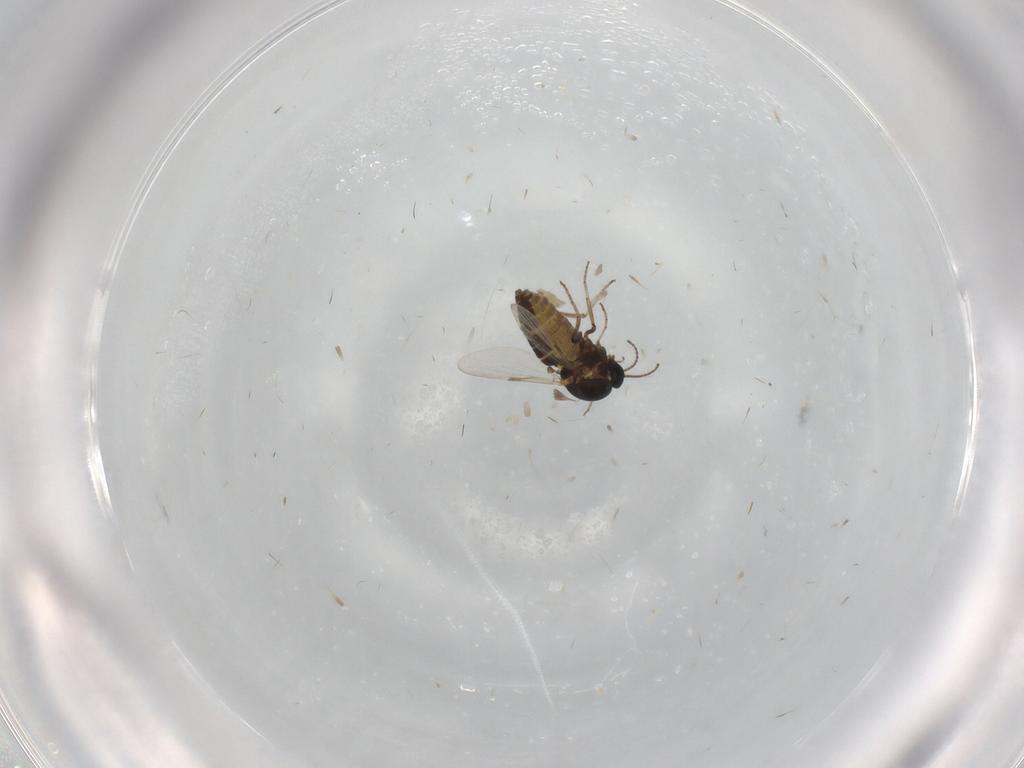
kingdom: Animalia
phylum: Arthropoda
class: Insecta
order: Diptera
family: Ceratopogonidae
